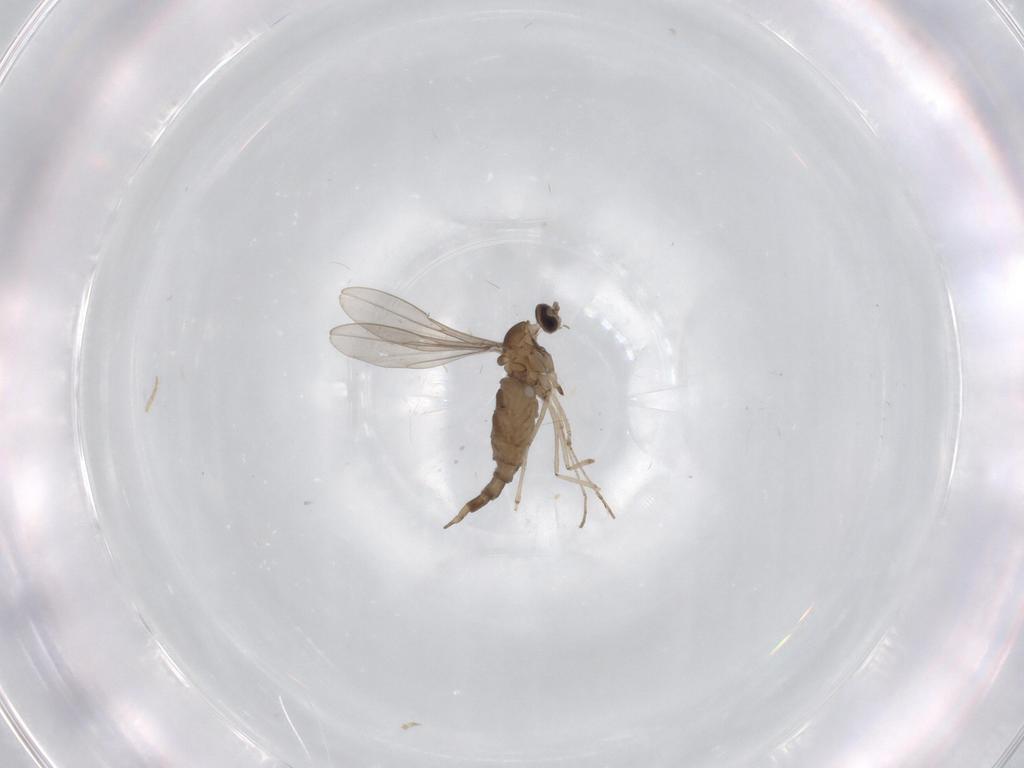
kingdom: Animalia
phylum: Arthropoda
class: Insecta
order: Diptera
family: Cecidomyiidae
